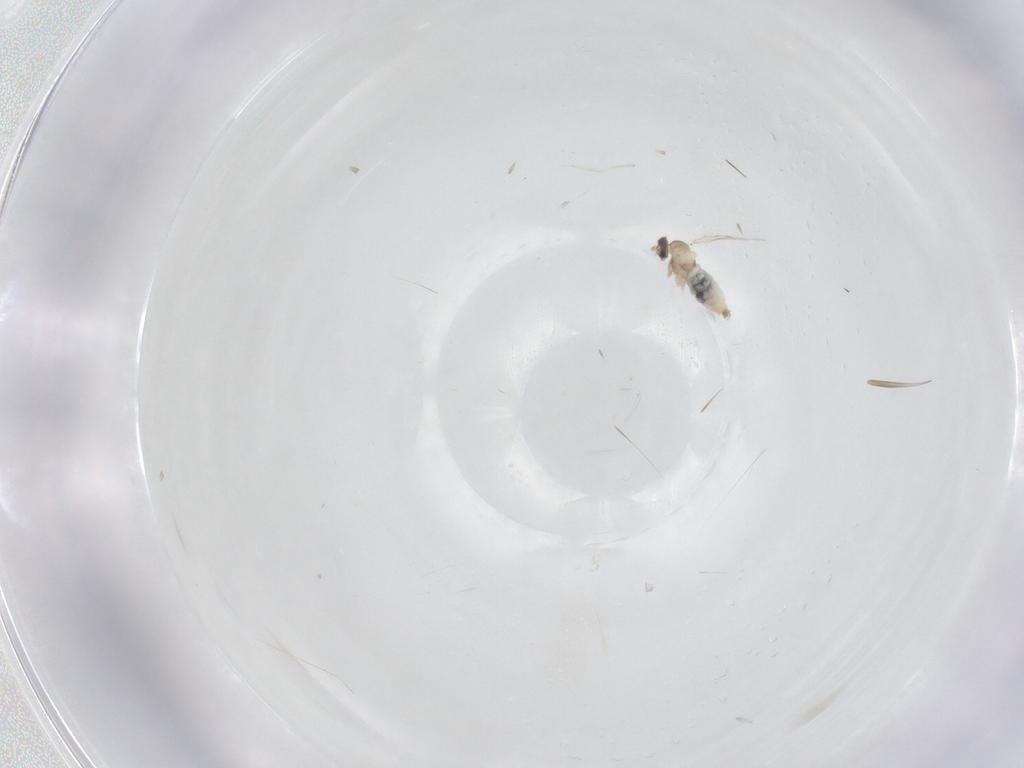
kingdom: Animalia
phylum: Arthropoda
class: Insecta
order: Diptera
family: Cecidomyiidae
